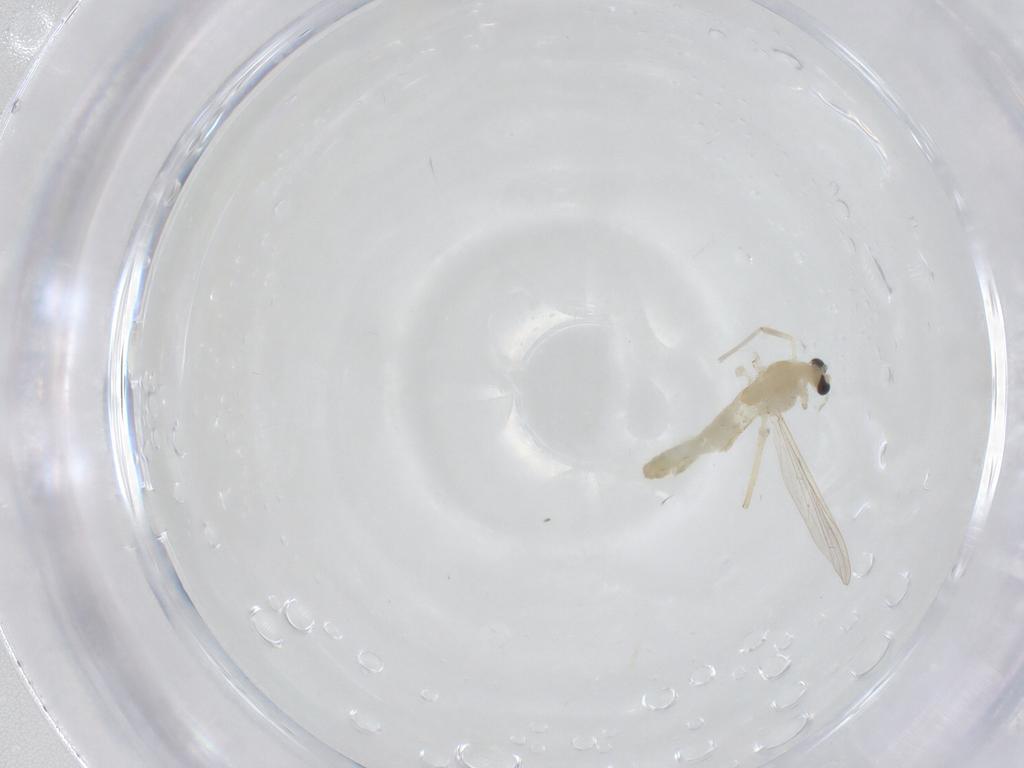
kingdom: Animalia
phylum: Arthropoda
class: Insecta
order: Diptera
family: Chironomidae
